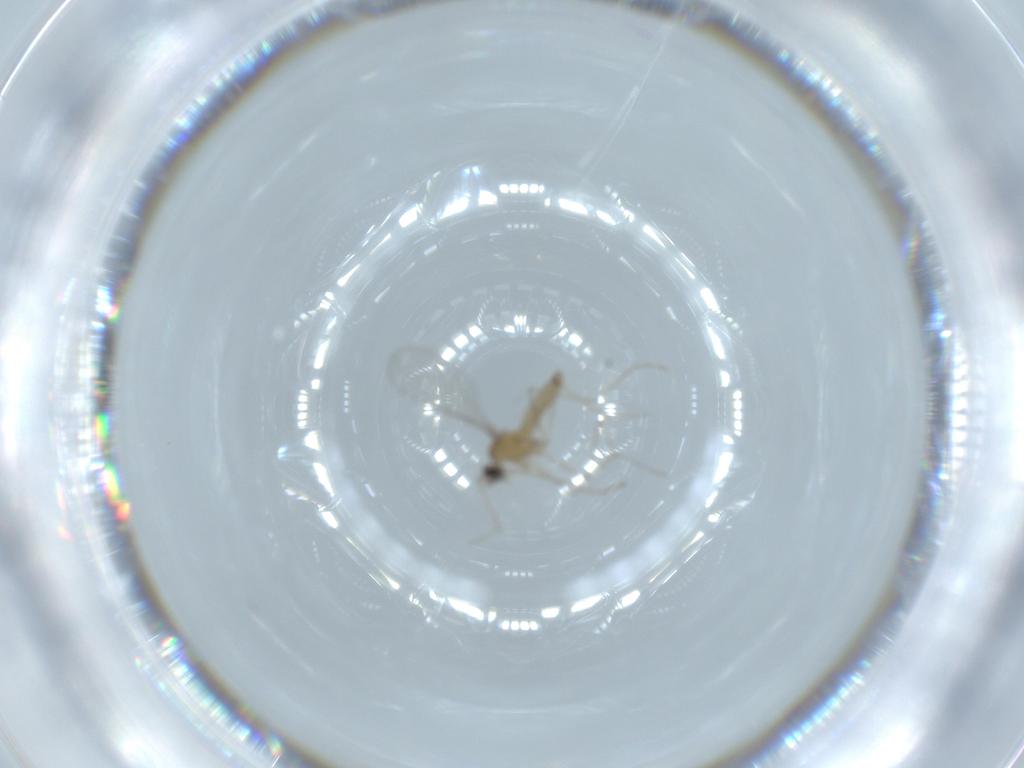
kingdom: Animalia
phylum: Arthropoda
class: Insecta
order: Diptera
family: Cecidomyiidae
